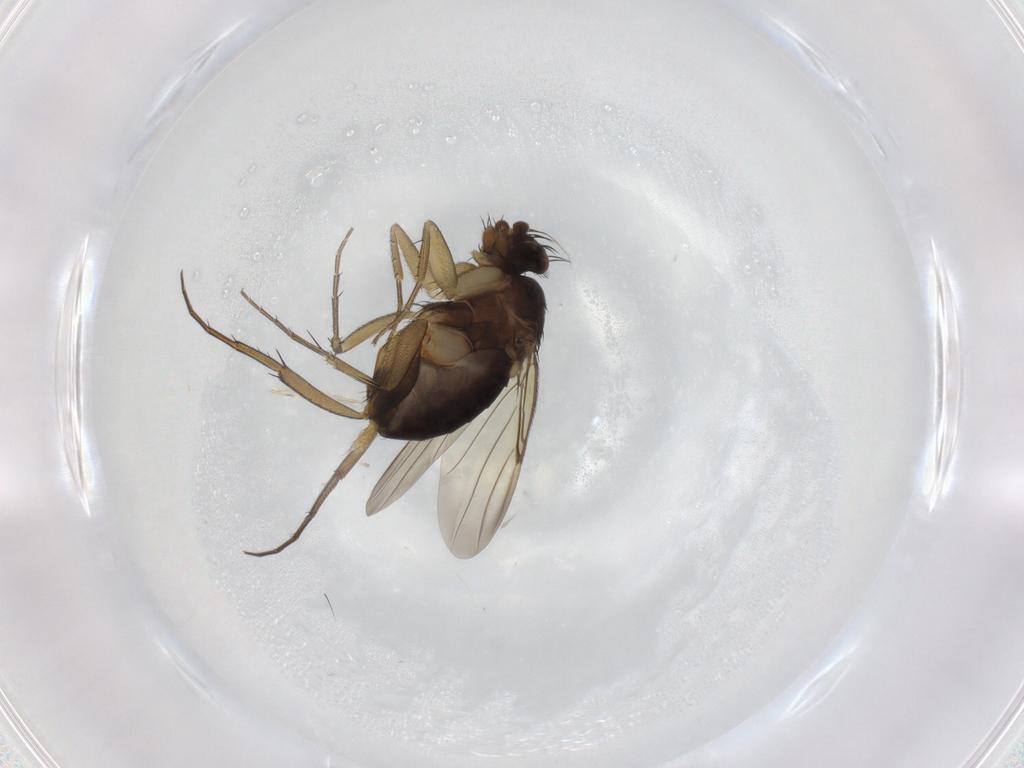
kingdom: Animalia
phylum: Arthropoda
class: Insecta
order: Diptera
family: Phoridae
